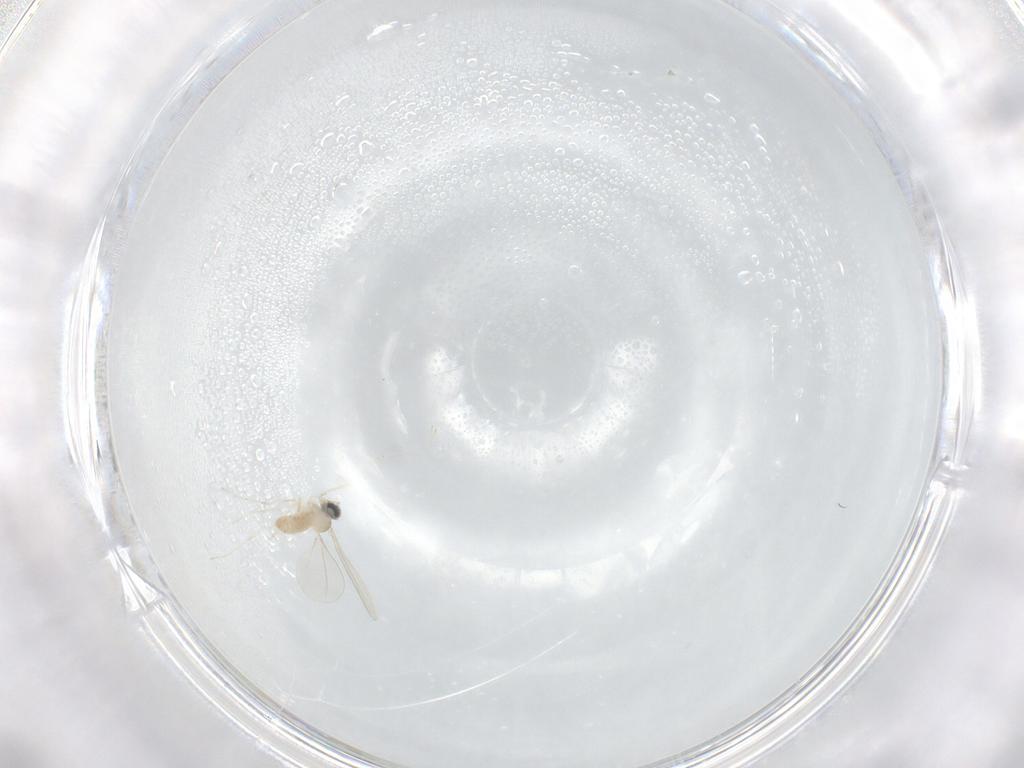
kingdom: Animalia
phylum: Arthropoda
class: Insecta
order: Diptera
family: Cecidomyiidae
